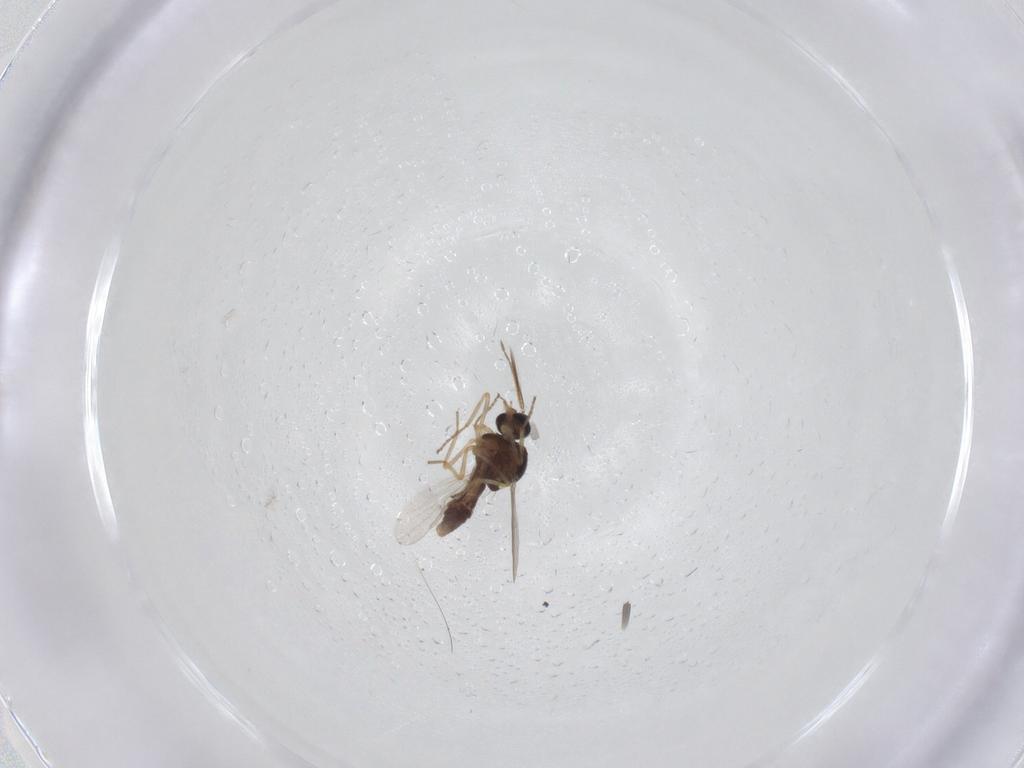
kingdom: Animalia
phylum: Arthropoda
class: Insecta
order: Diptera
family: Ceratopogonidae
